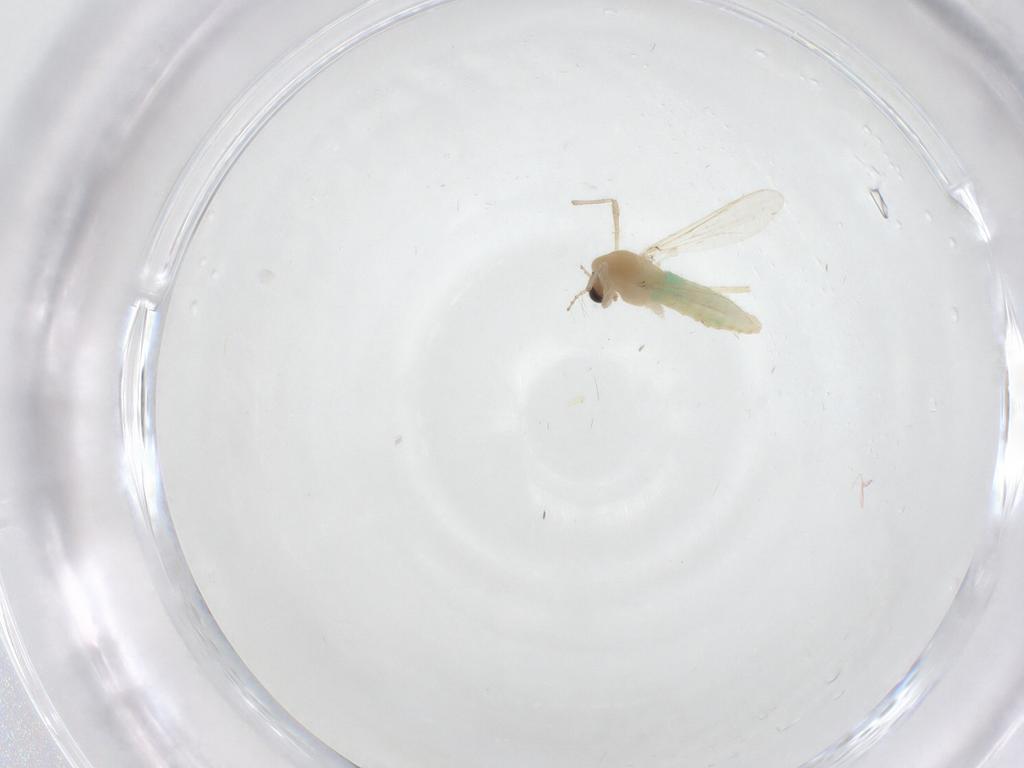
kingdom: Animalia
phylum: Arthropoda
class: Insecta
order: Diptera
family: Chironomidae
